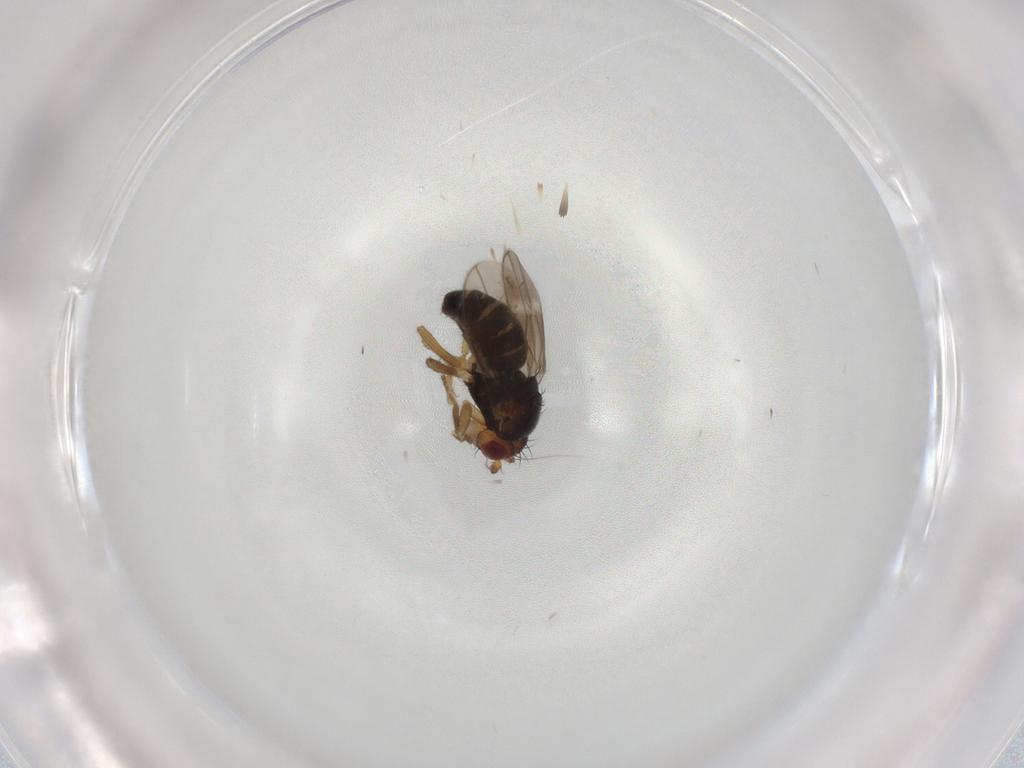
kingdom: Animalia
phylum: Arthropoda
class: Insecta
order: Diptera
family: Sphaeroceridae
